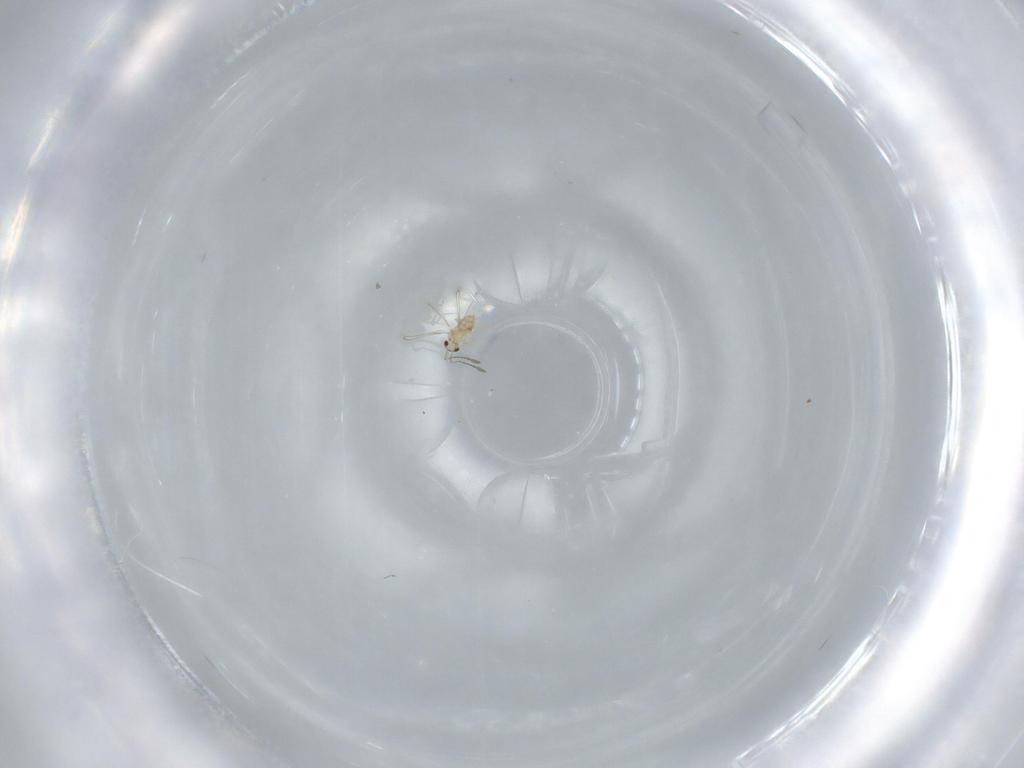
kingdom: Animalia
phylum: Arthropoda
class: Insecta
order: Hymenoptera
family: Mymaridae
